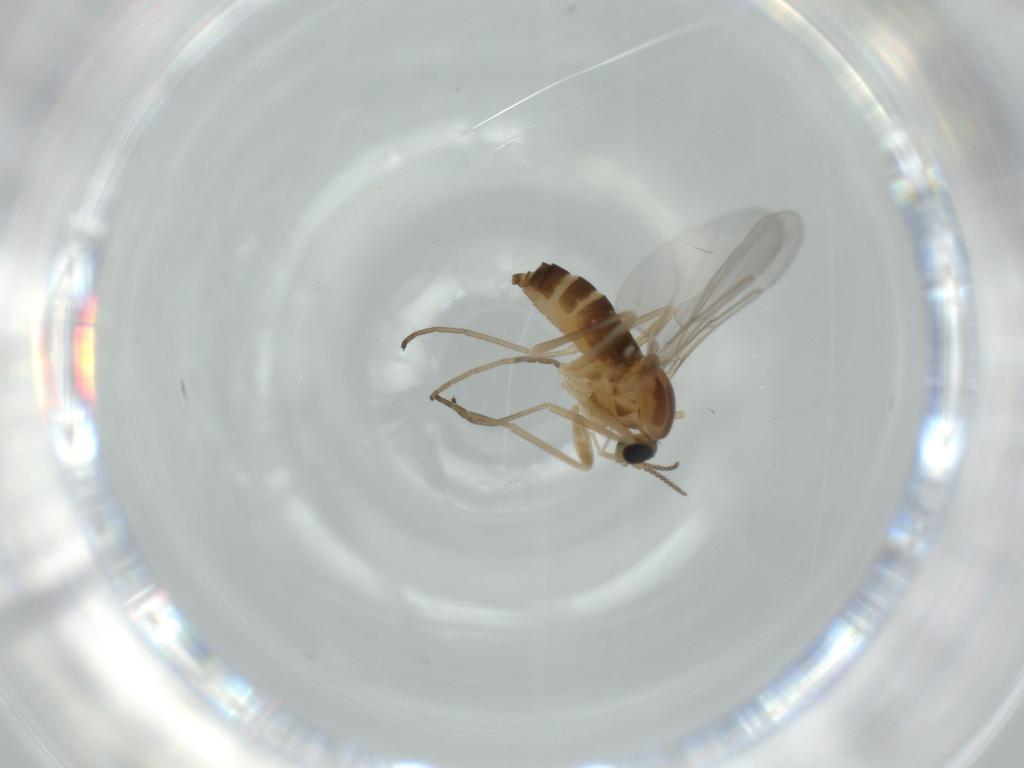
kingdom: Animalia
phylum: Arthropoda
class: Insecta
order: Diptera
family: Cecidomyiidae
